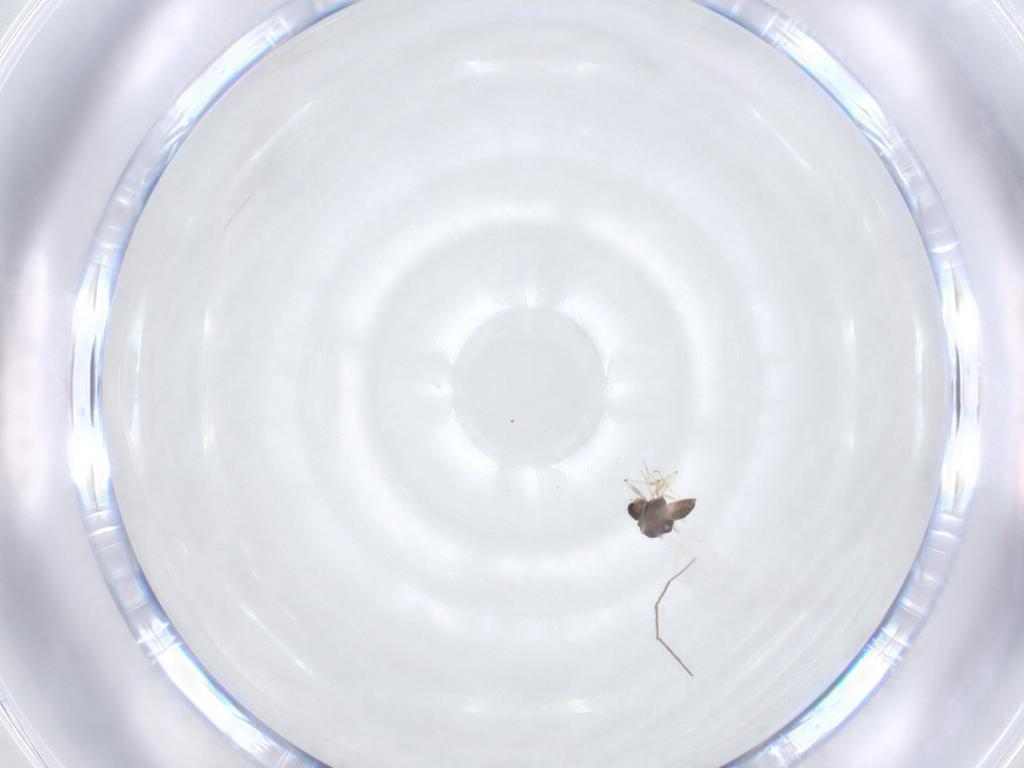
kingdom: Animalia
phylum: Arthropoda
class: Insecta
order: Diptera
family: Chironomidae
